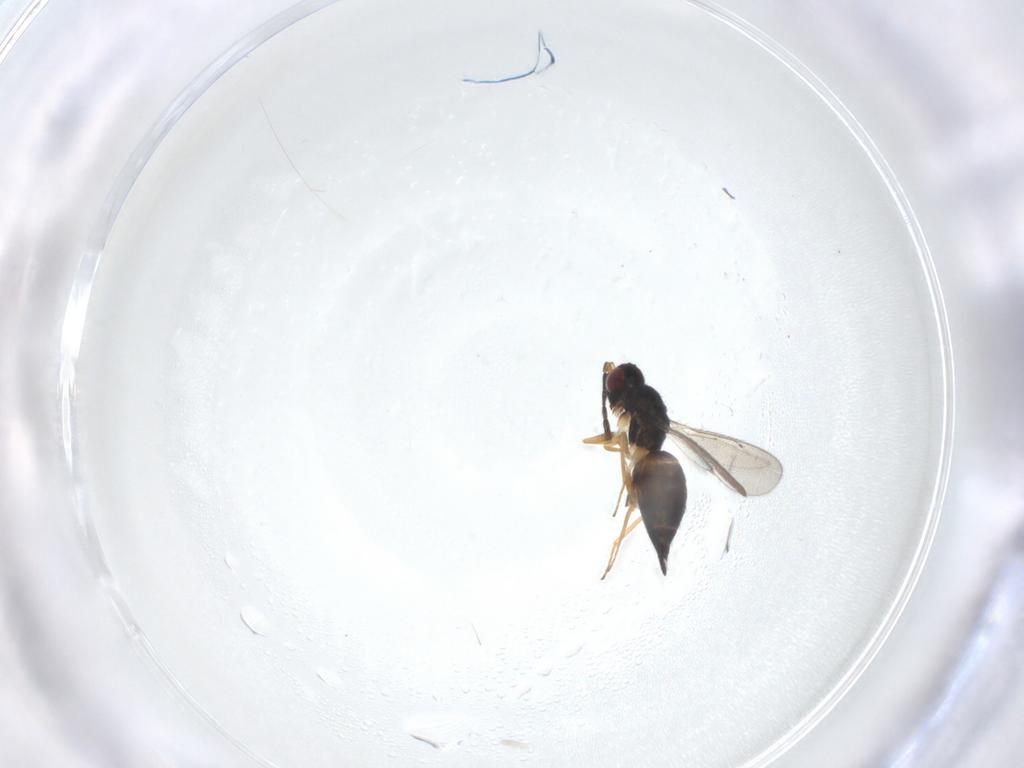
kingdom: Animalia
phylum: Arthropoda
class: Insecta
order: Hymenoptera
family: Eulophidae
